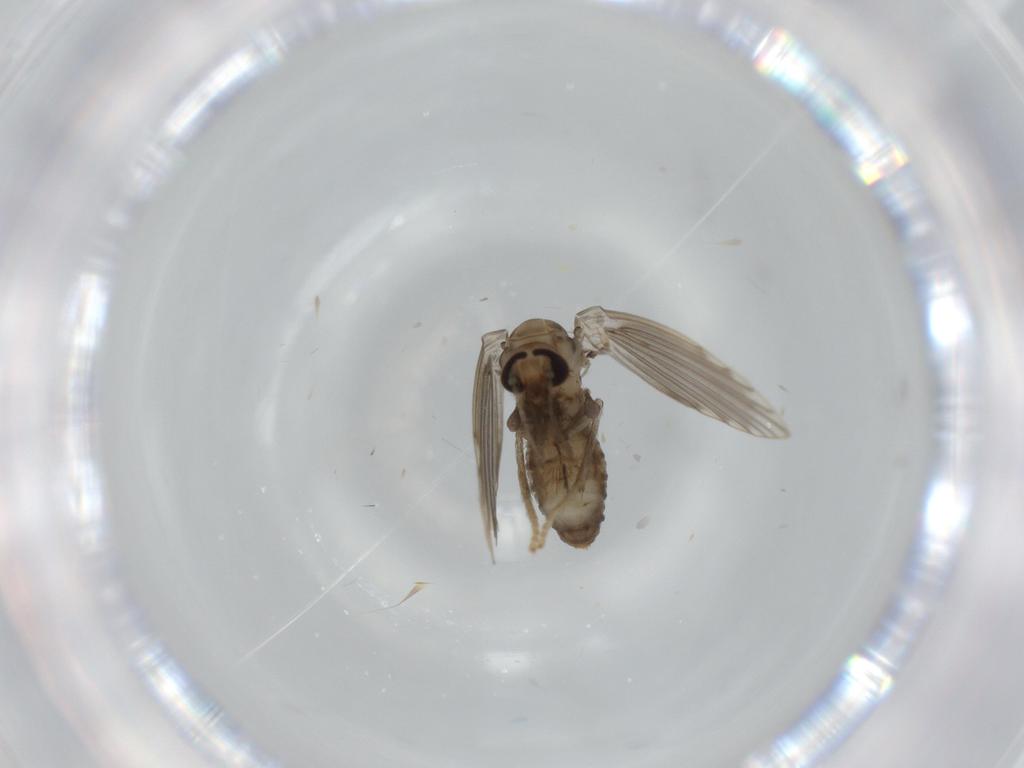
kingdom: Animalia
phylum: Arthropoda
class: Insecta
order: Diptera
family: Psychodidae
